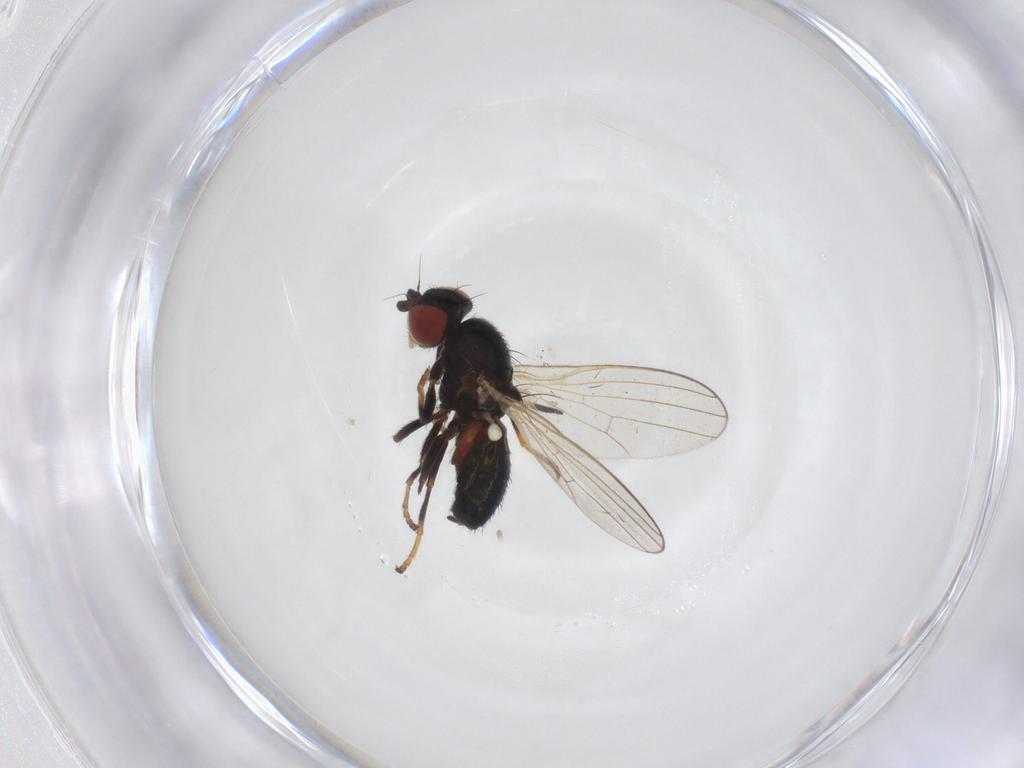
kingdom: Animalia
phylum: Arthropoda
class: Insecta
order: Diptera
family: Chamaemyiidae
